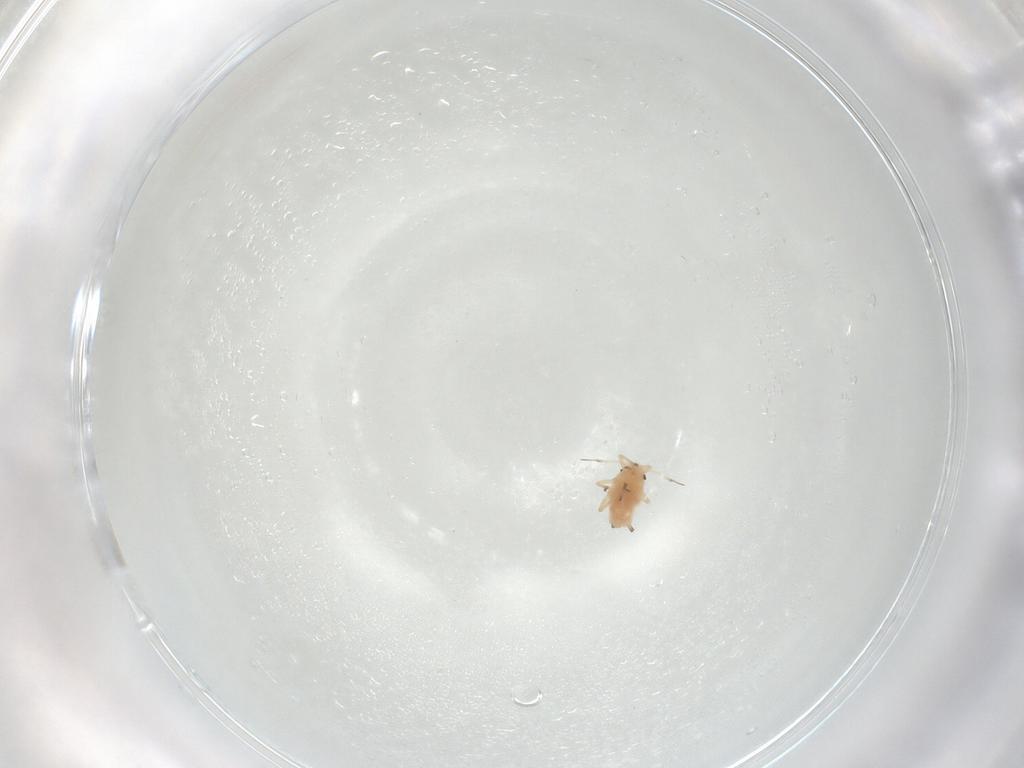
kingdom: Animalia
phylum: Arthropoda
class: Insecta
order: Hemiptera
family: Aphididae
